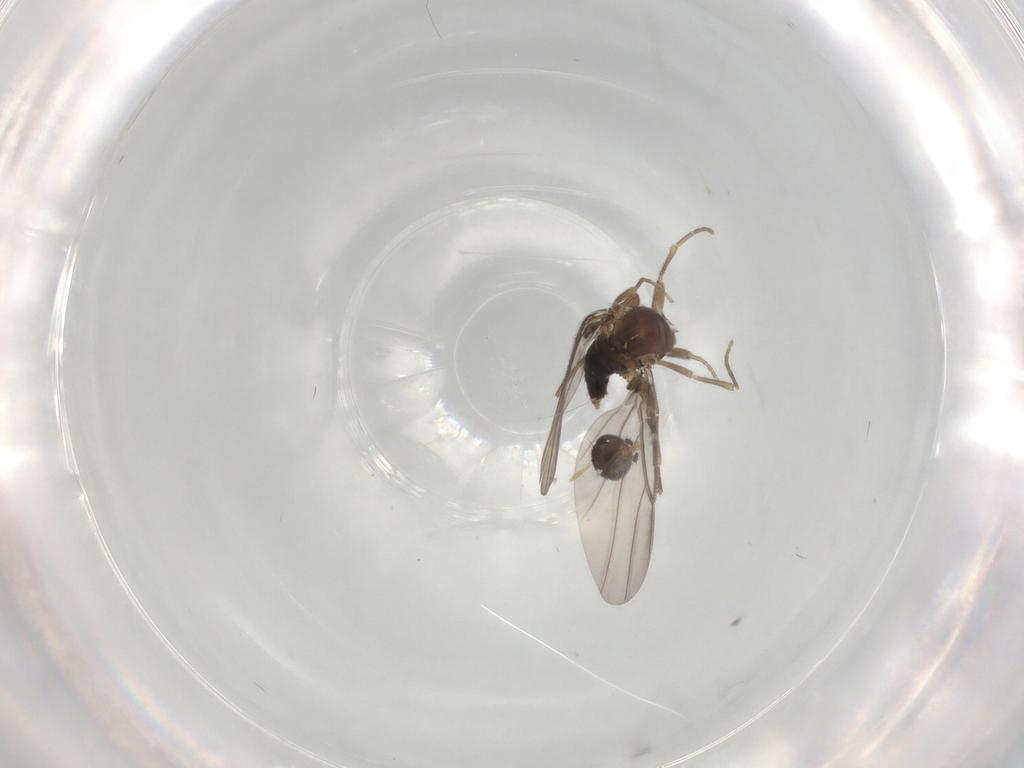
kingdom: Animalia
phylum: Arthropoda
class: Insecta
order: Diptera
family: Phoridae
